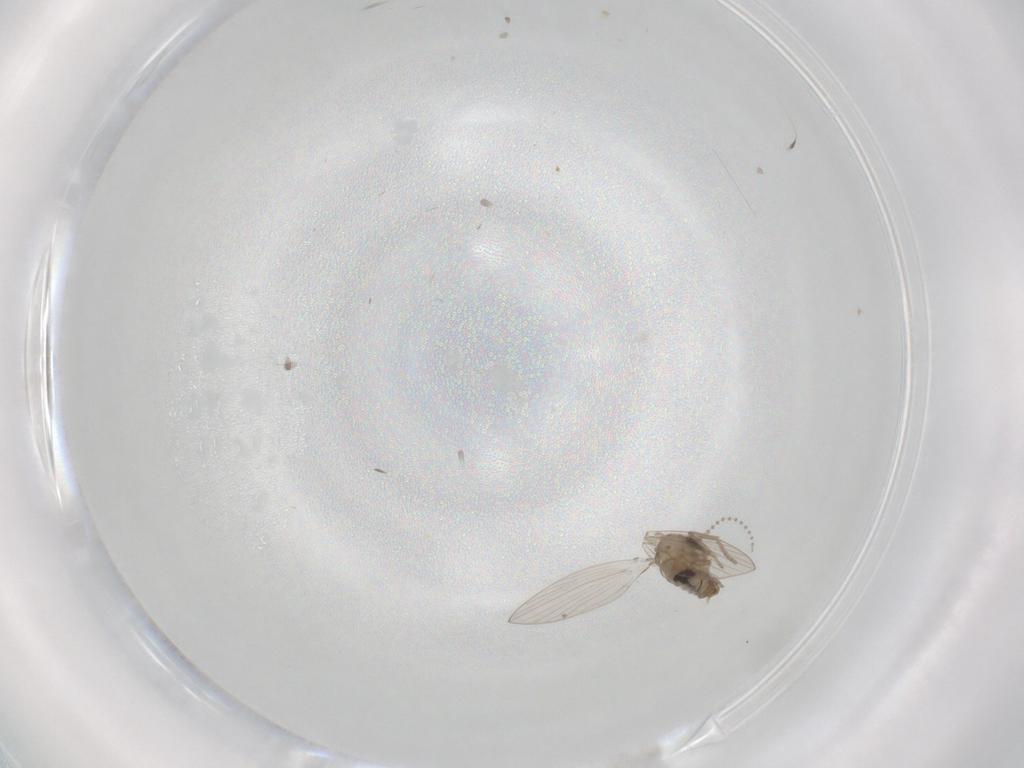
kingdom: Animalia
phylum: Arthropoda
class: Insecta
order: Diptera
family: Psychodidae
